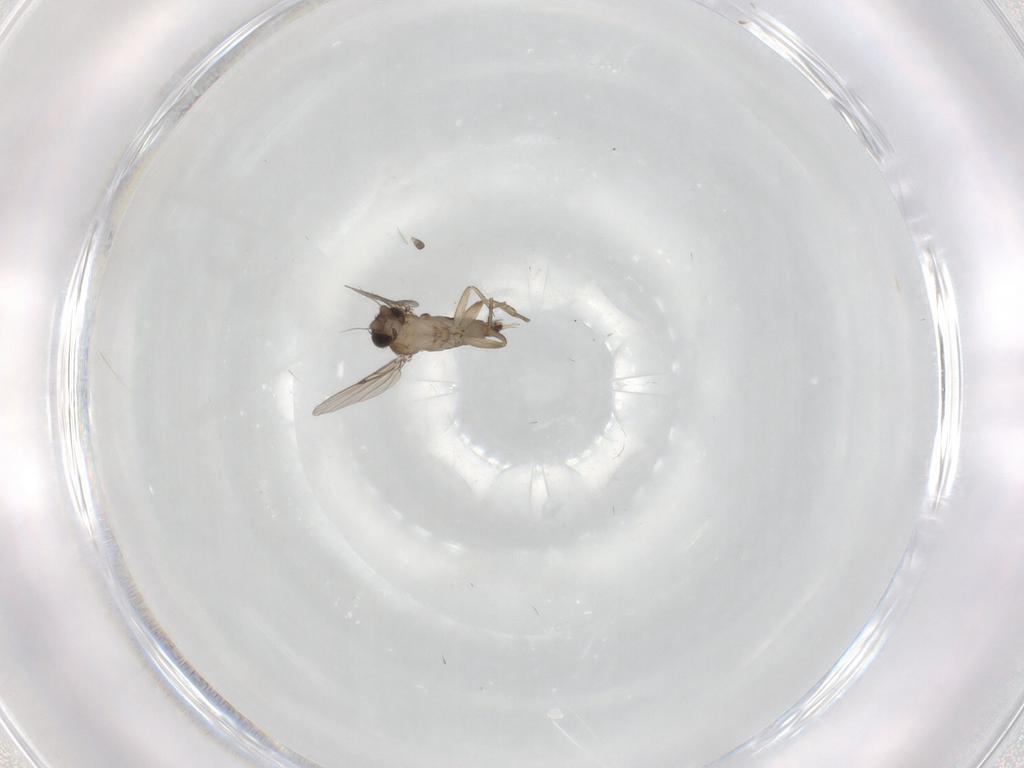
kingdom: Animalia
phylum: Arthropoda
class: Insecta
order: Diptera
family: Phoridae
